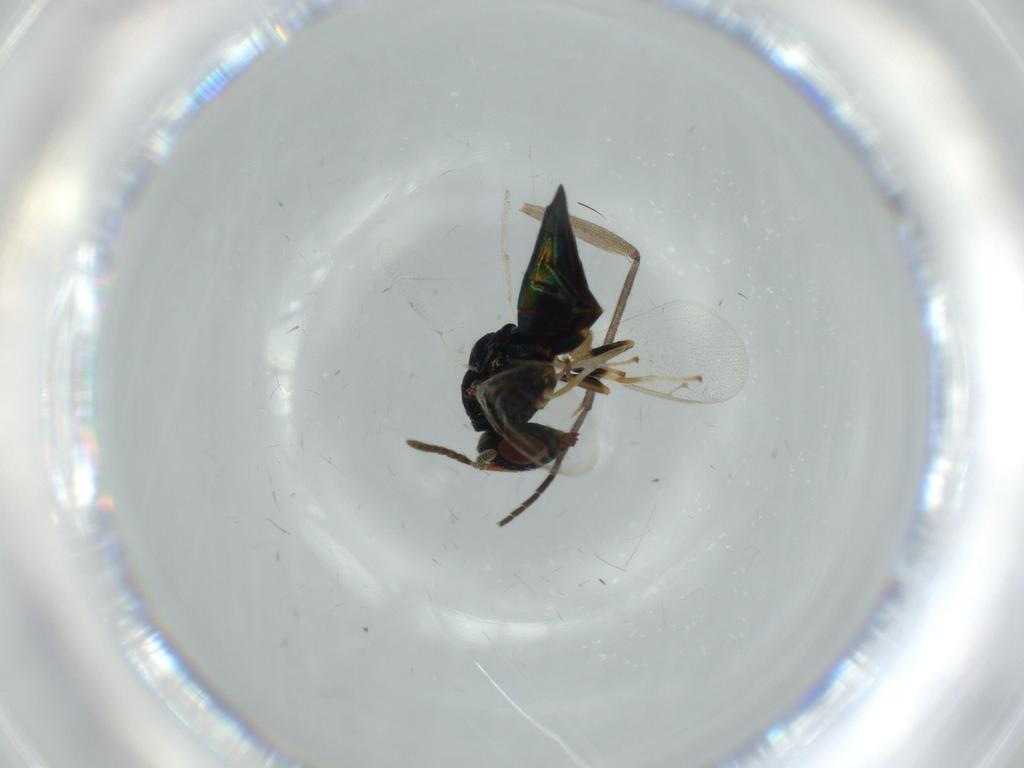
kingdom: Animalia
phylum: Arthropoda
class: Insecta
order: Hymenoptera
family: Pteromalidae
